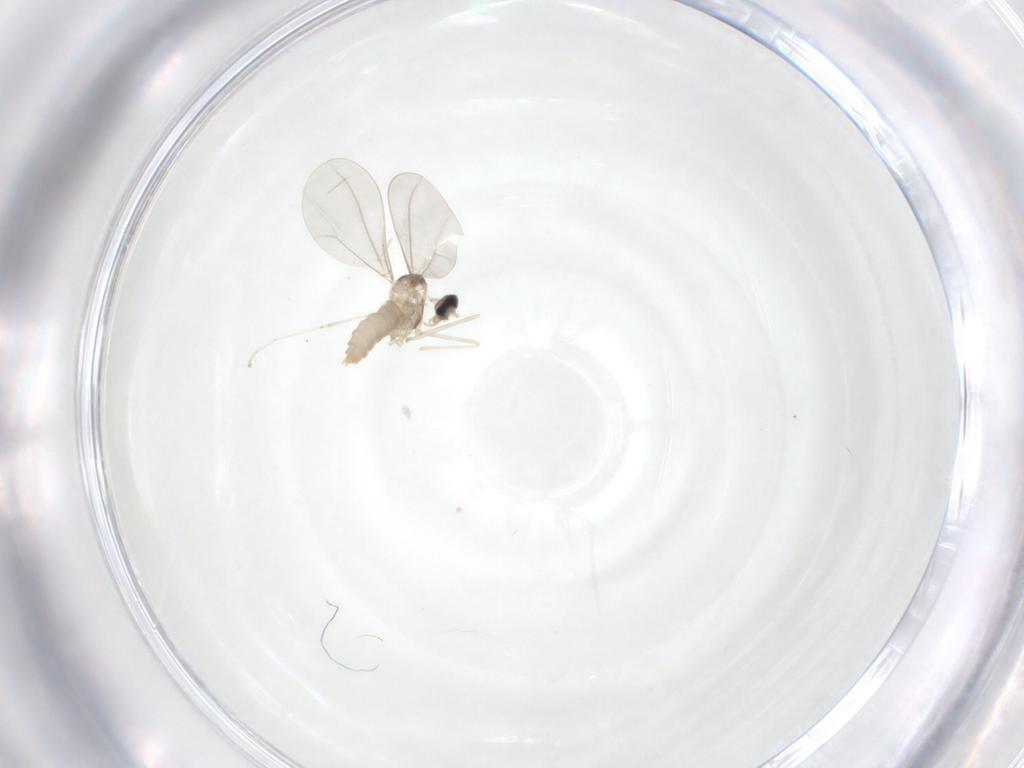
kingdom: Animalia
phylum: Arthropoda
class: Insecta
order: Diptera
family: Cecidomyiidae
